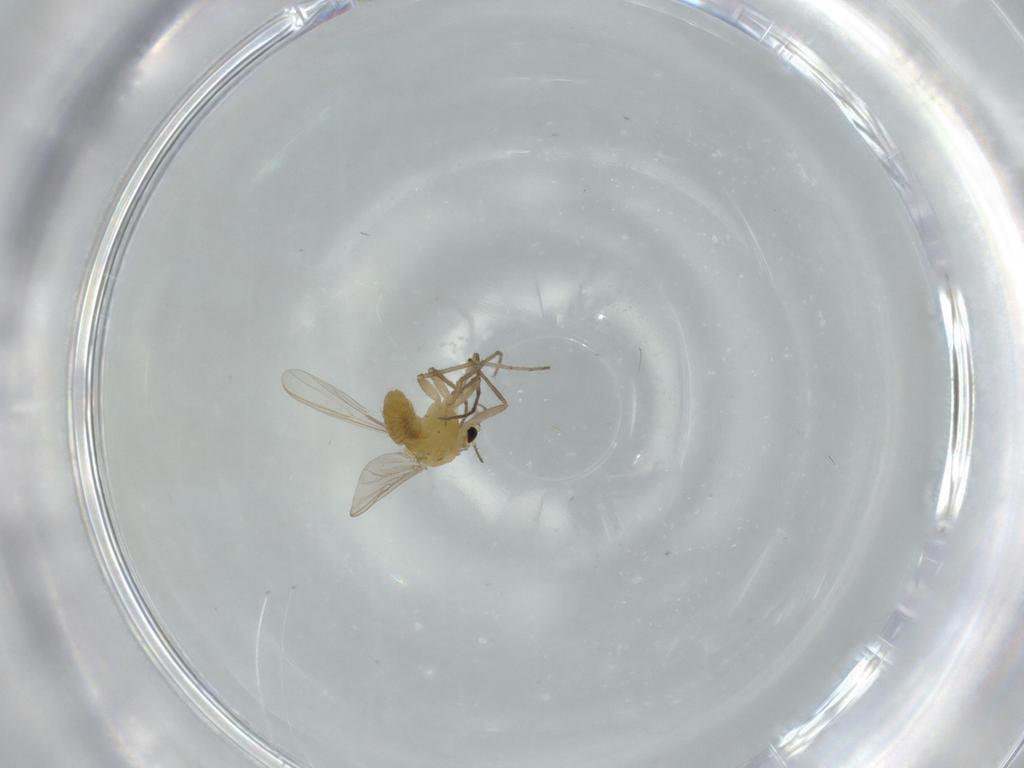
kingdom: Animalia
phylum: Arthropoda
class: Insecta
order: Diptera
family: Chironomidae
